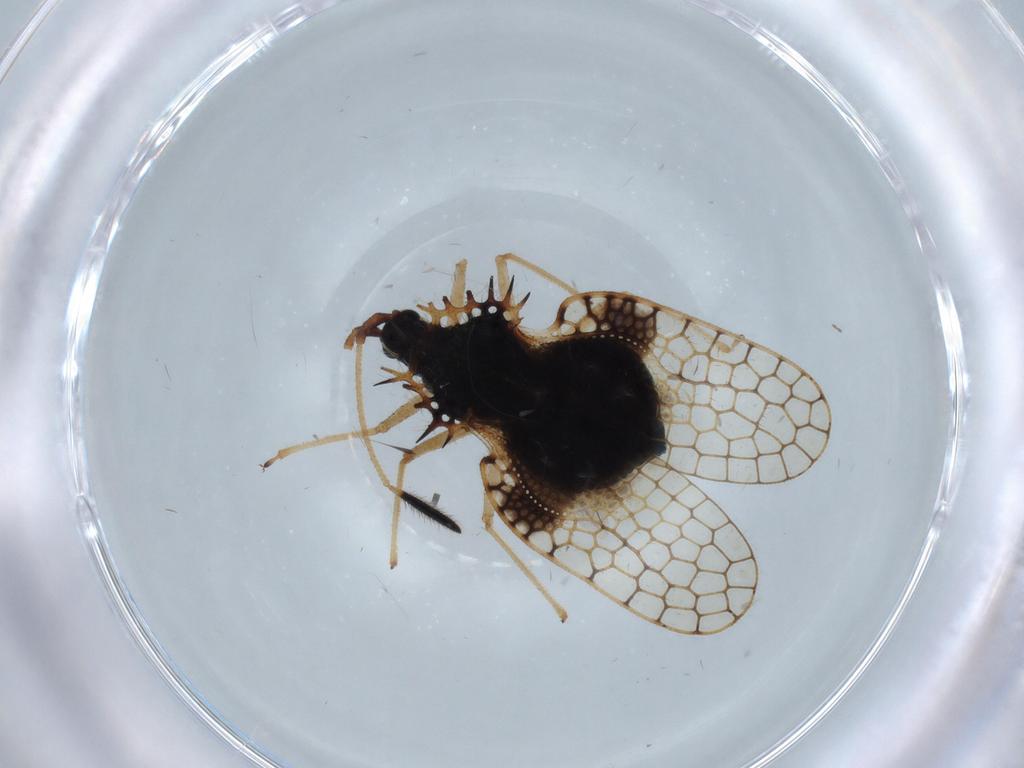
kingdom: Animalia
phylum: Arthropoda
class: Insecta
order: Hemiptera
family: Aleyrodidae
